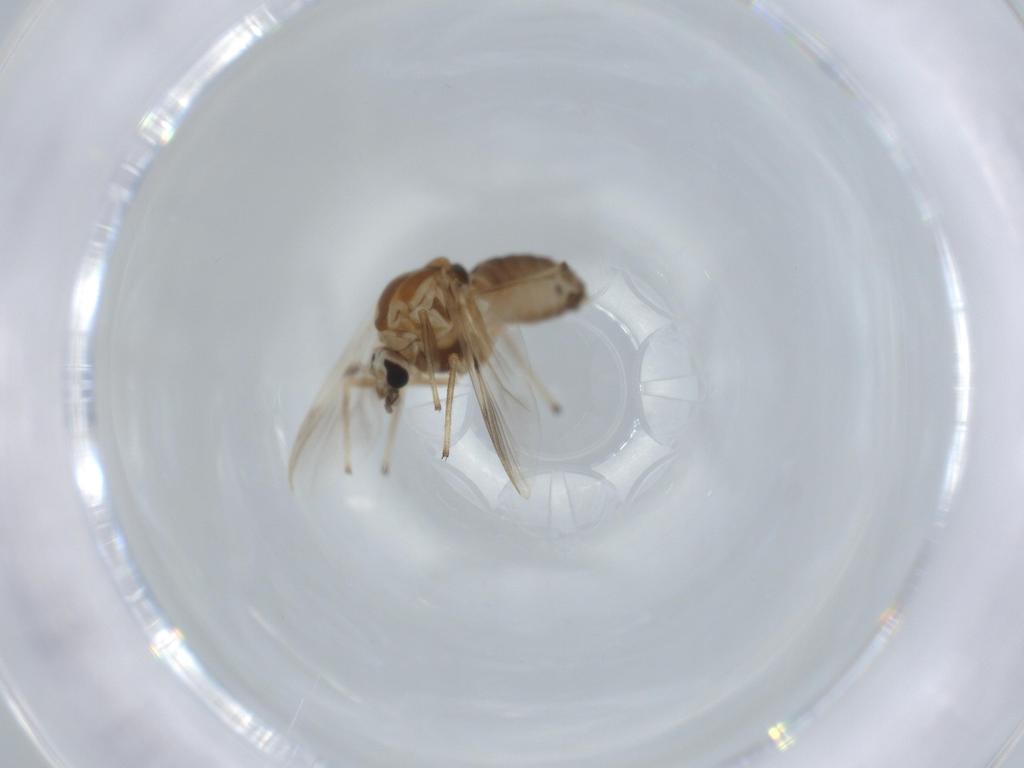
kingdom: Animalia
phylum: Arthropoda
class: Insecta
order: Diptera
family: Chironomidae
